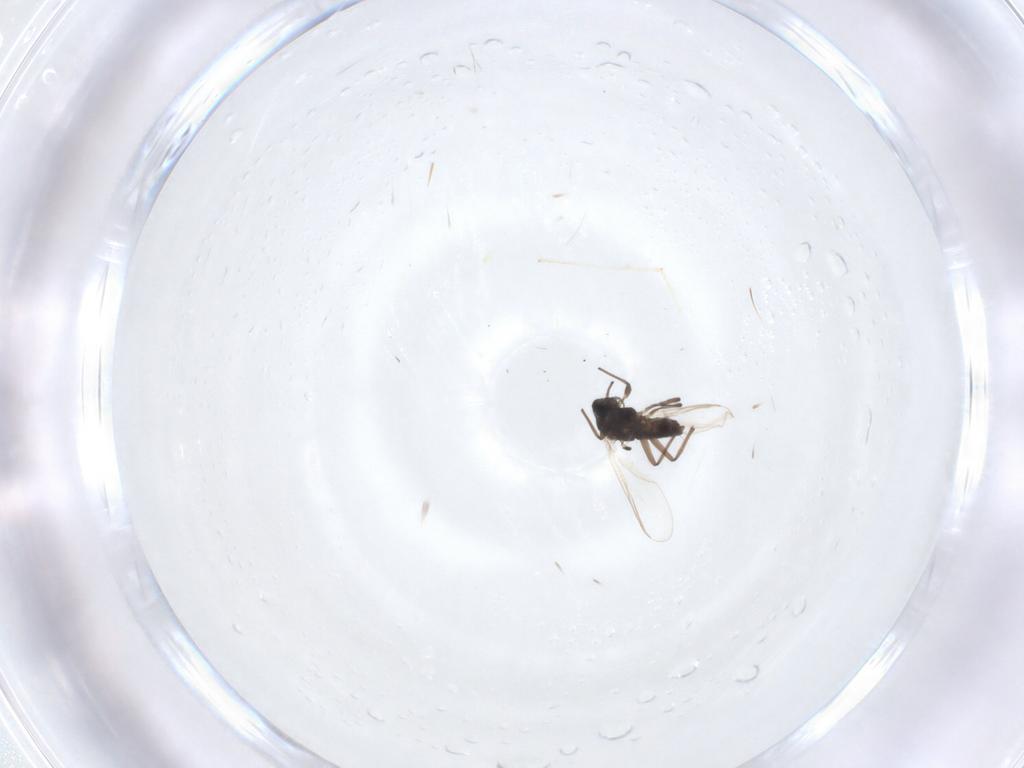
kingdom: Animalia
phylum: Arthropoda
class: Insecta
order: Diptera
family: Chironomidae
